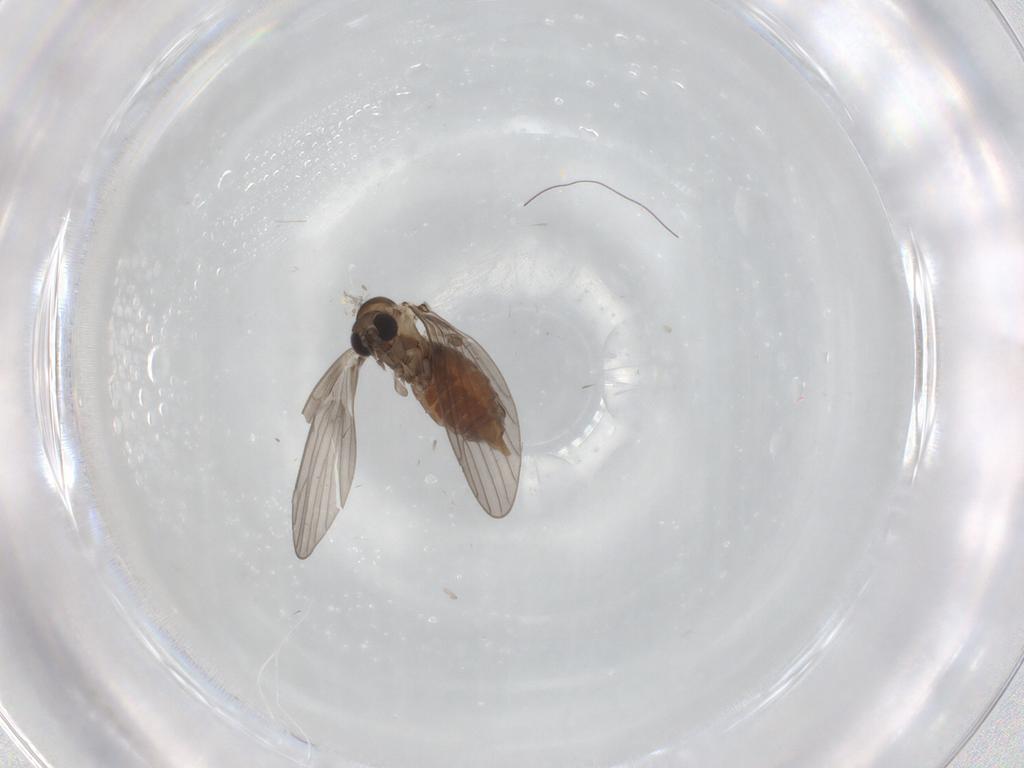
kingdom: Animalia
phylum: Arthropoda
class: Insecta
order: Diptera
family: Psychodidae
